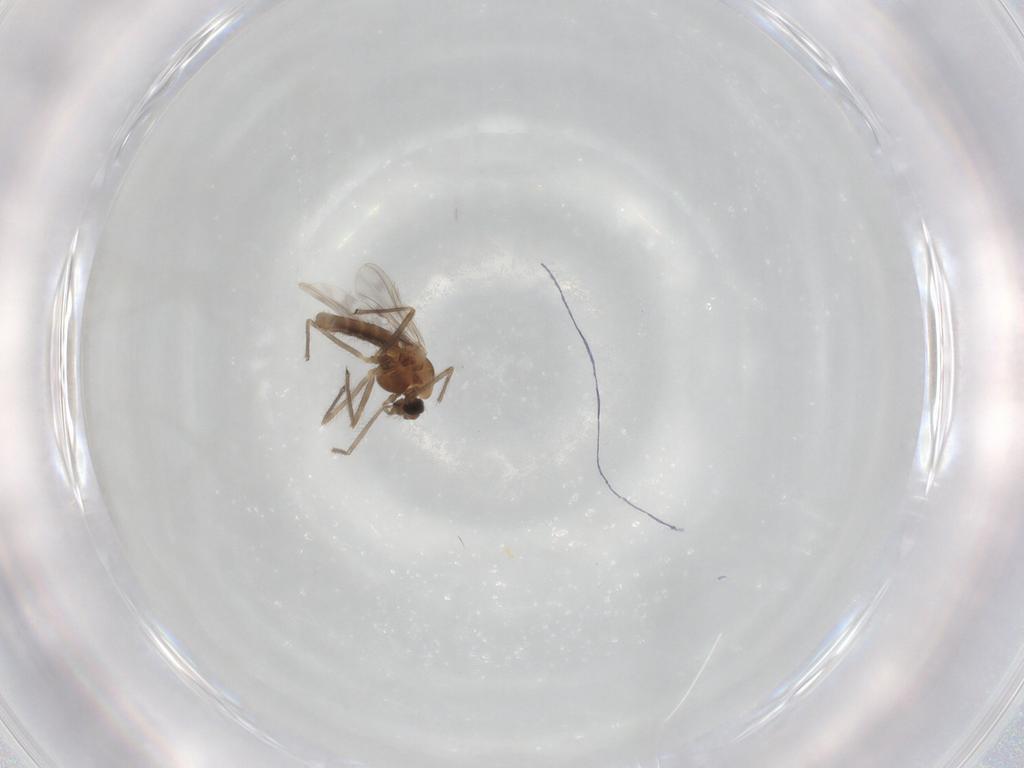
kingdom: Animalia
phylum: Arthropoda
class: Insecta
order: Diptera
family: Chironomidae
